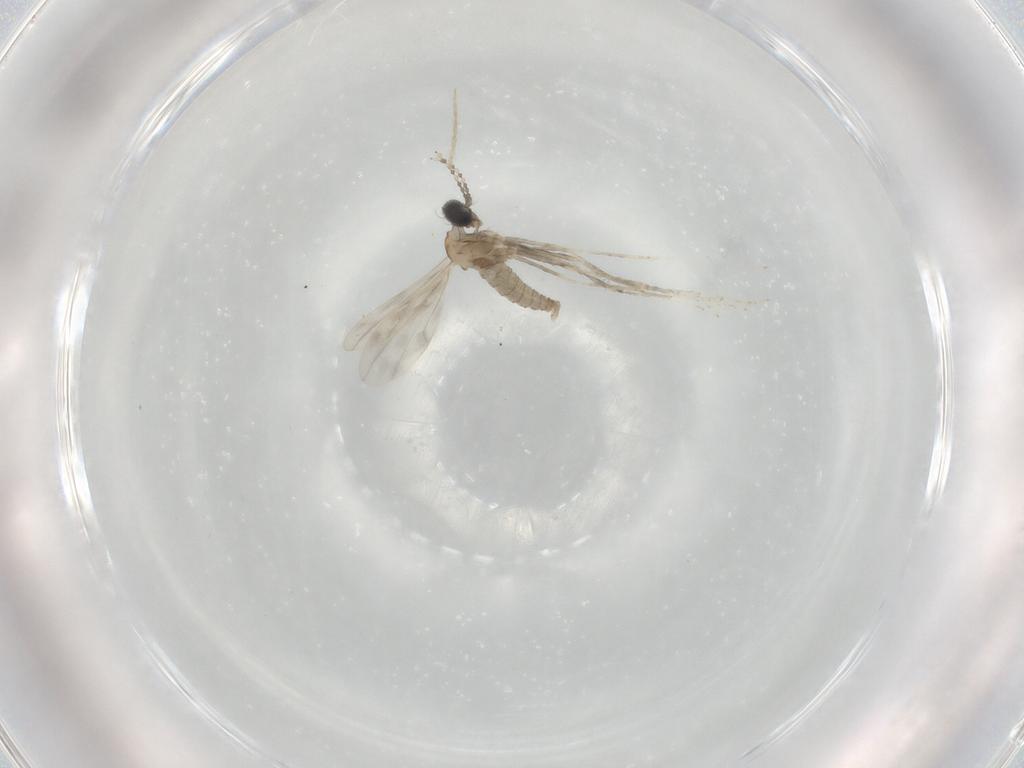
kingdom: Animalia
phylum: Arthropoda
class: Insecta
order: Diptera
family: Cecidomyiidae
